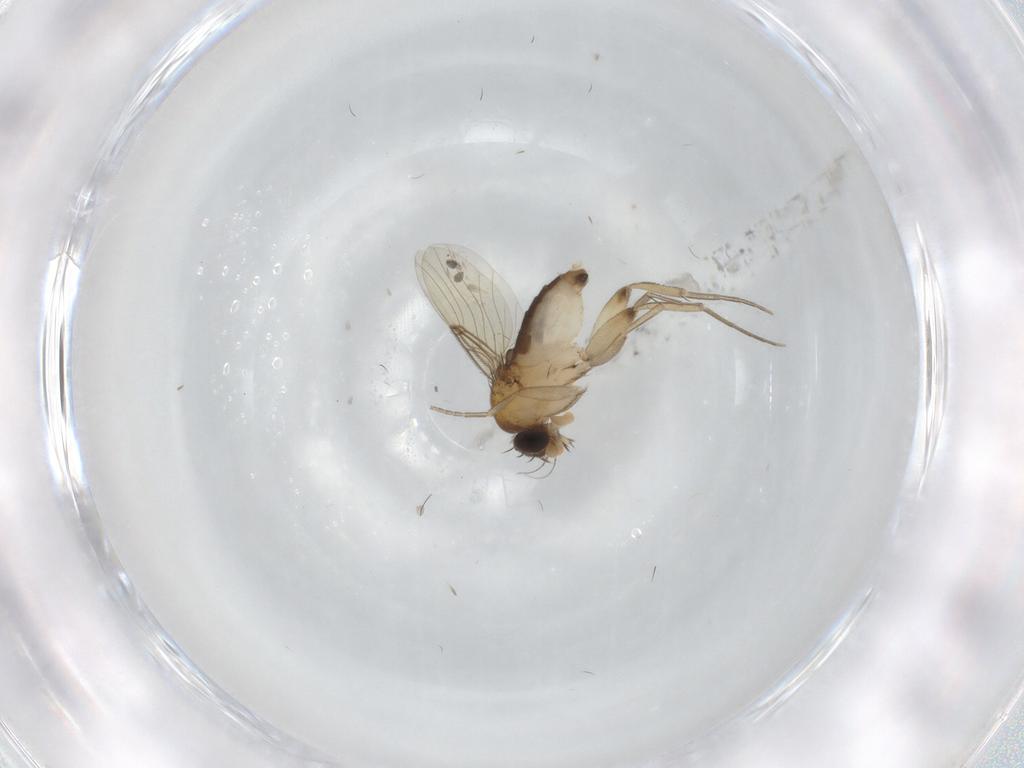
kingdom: Animalia
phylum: Arthropoda
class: Insecta
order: Diptera
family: Phoridae
